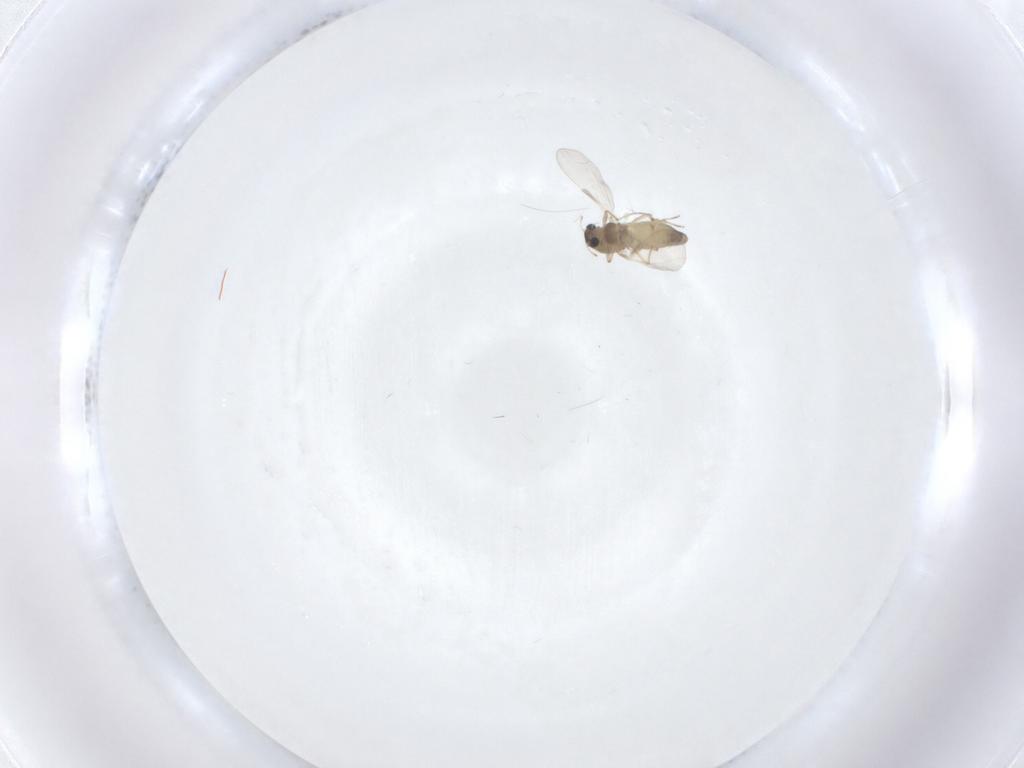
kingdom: Animalia
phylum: Arthropoda
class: Insecta
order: Diptera
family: Chironomidae
